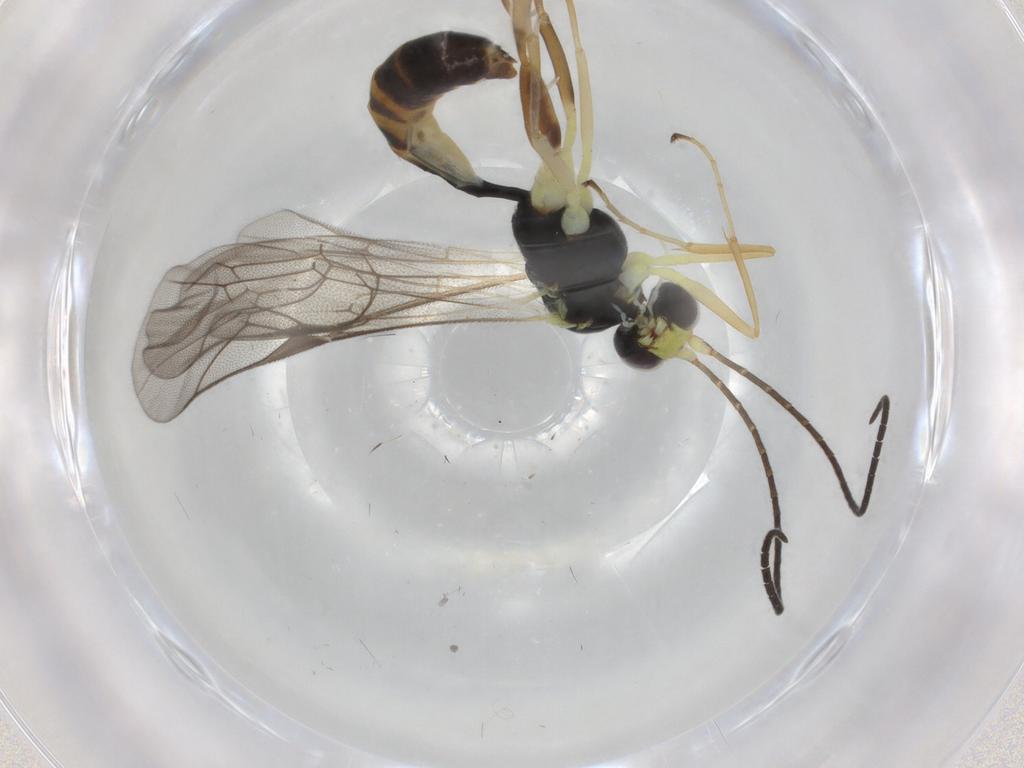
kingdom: Animalia
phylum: Arthropoda
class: Insecta
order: Hymenoptera
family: Ichneumonidae
